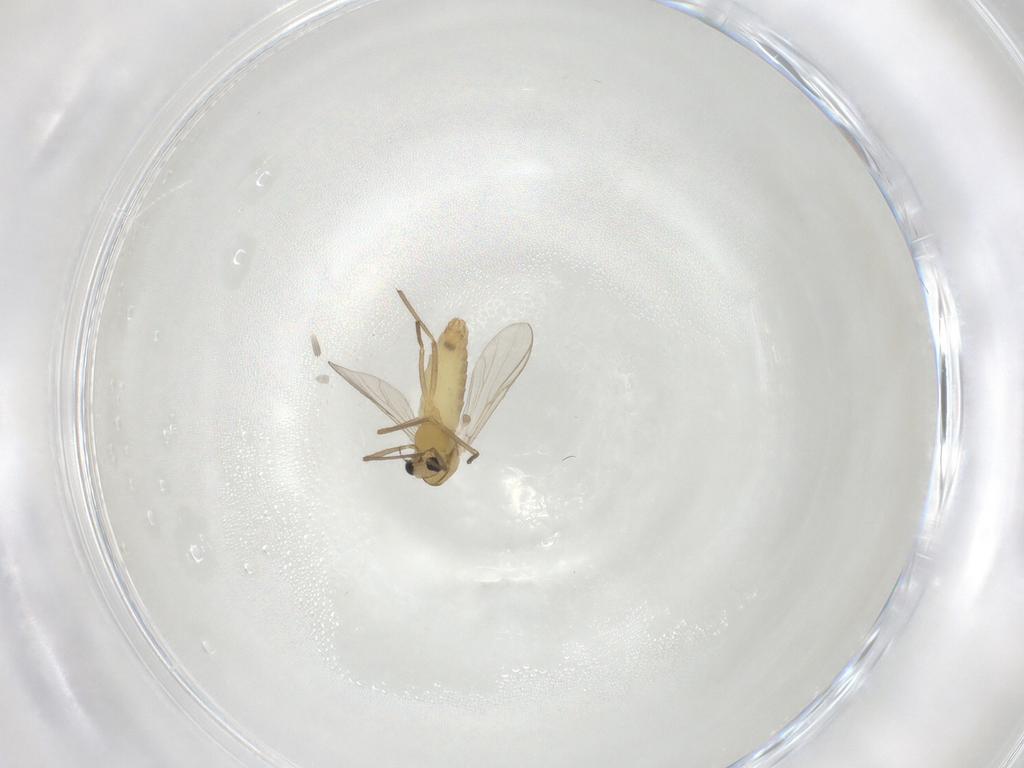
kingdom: Animalia
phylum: Arthropoda
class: Insecta
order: Diptera
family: Chironomidae
